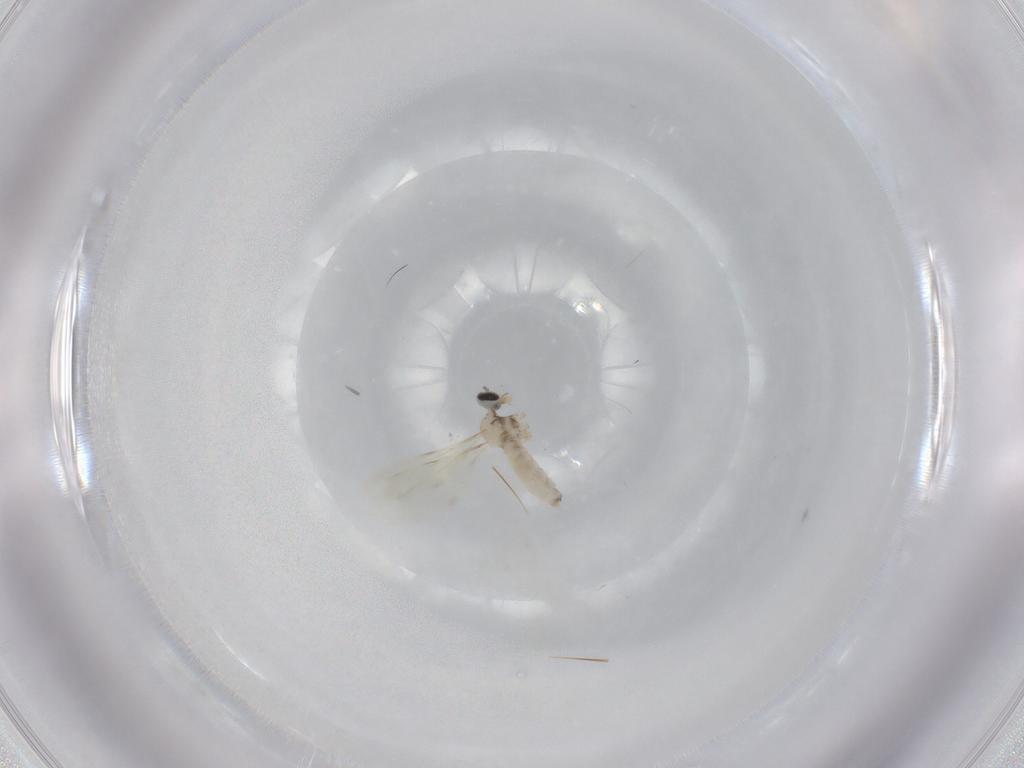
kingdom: Animalia
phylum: Arthropoda
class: Insecta
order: Diptera
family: Cecidomyiidae
